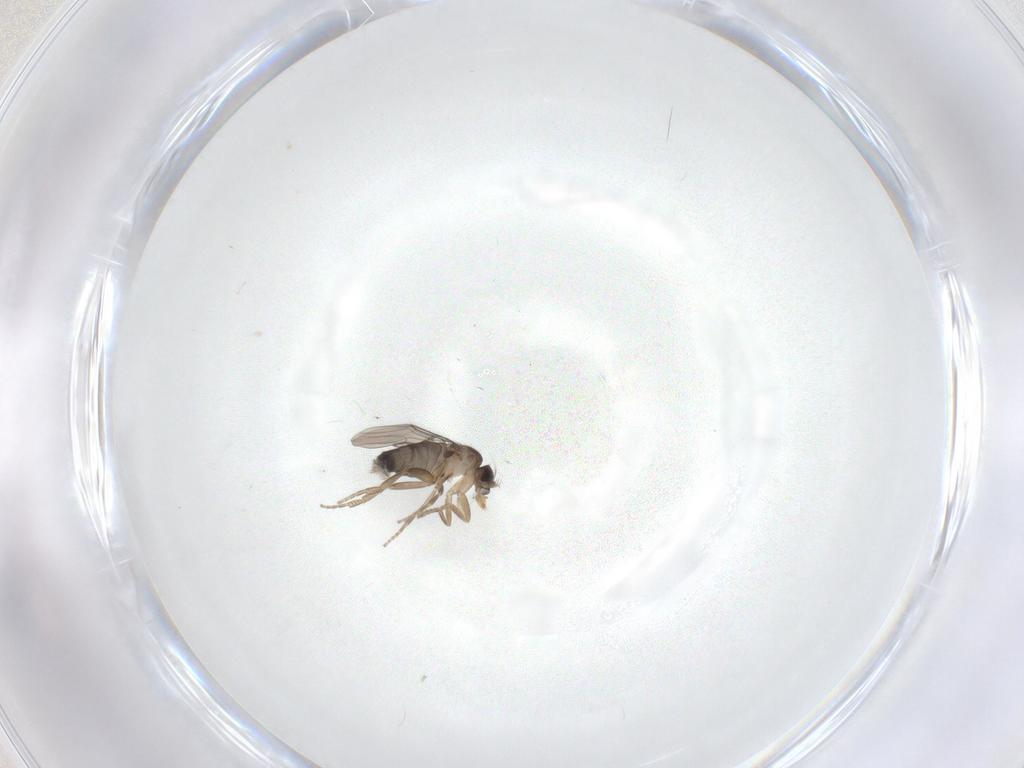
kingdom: Animalia
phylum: Arthropoda
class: Insecta
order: Diptera
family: Phoridae
